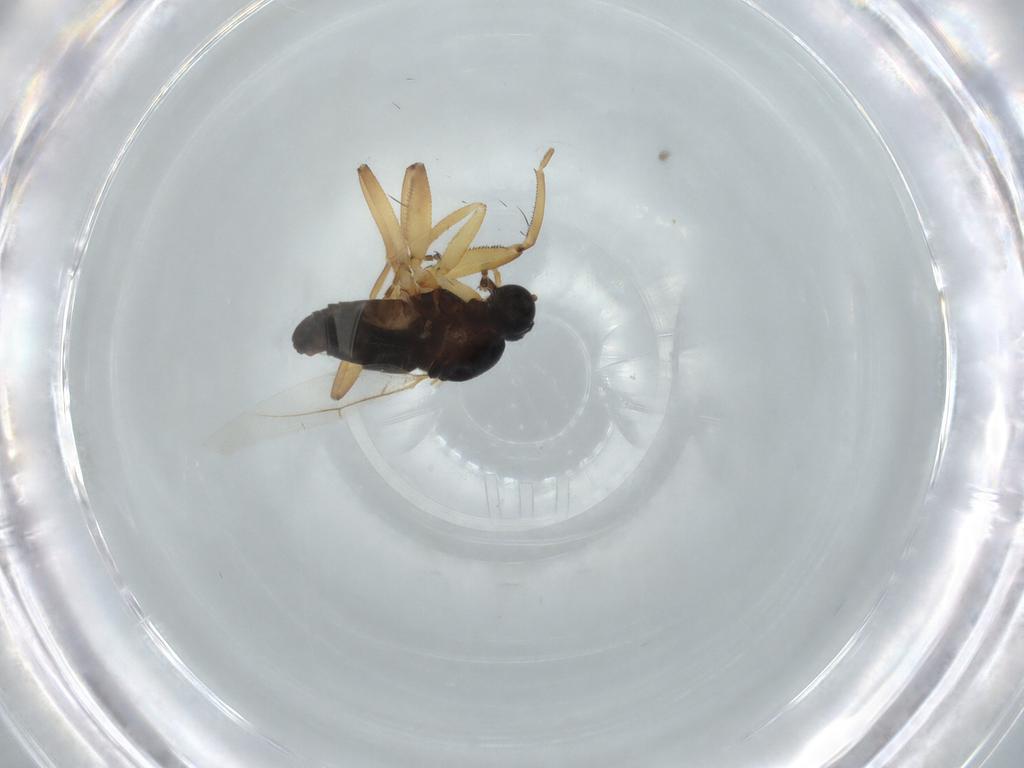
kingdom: Animalia
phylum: Arthropoda
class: Insecta
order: Diptera
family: Hybotidae
